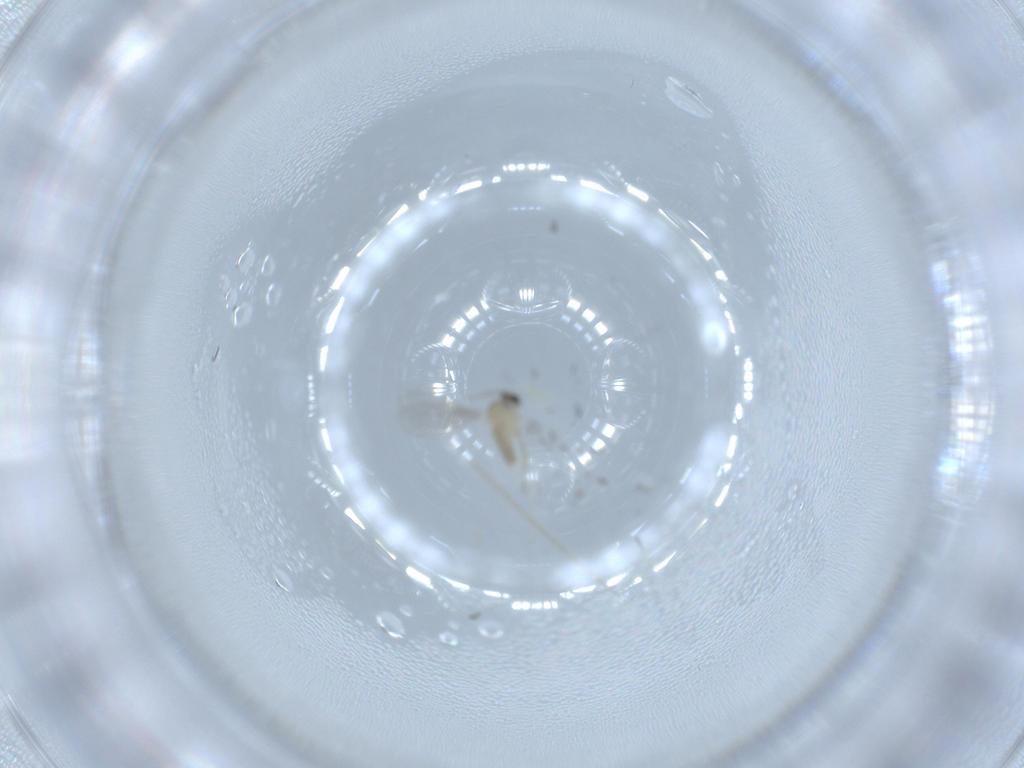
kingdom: Animalia
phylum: Arthropoda
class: Insecta
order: Diptera
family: Cecidomyiidae
